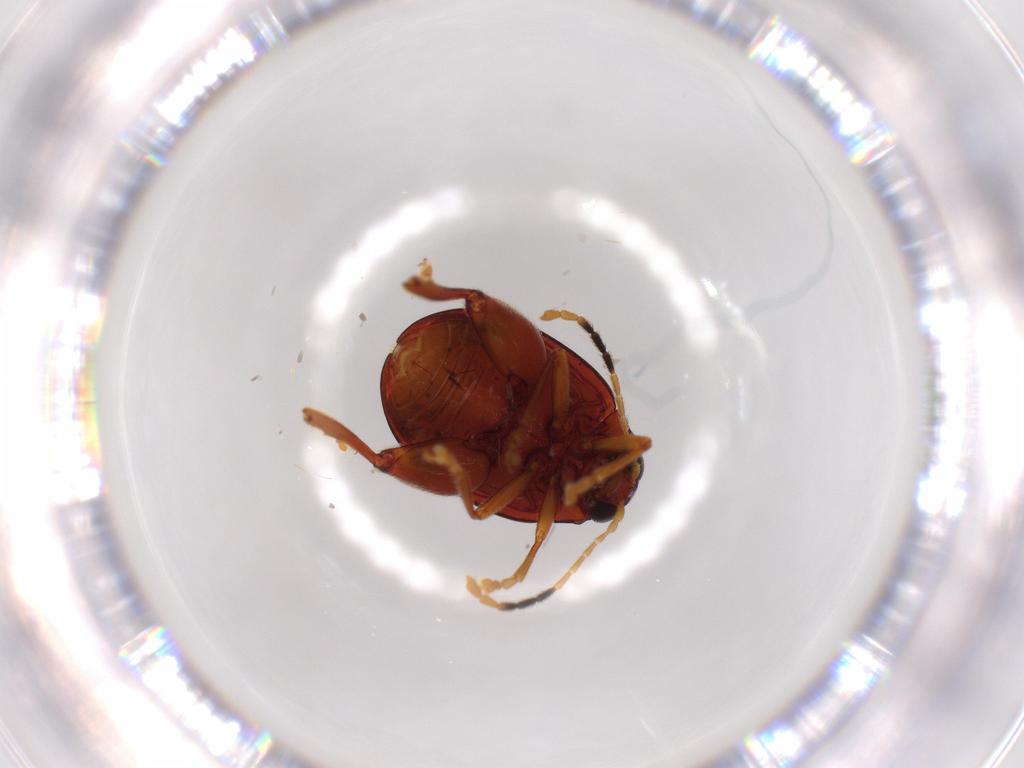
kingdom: Animalia
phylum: Arthropoda
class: Insecta
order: Coleoptera
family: Chrysomelidae
